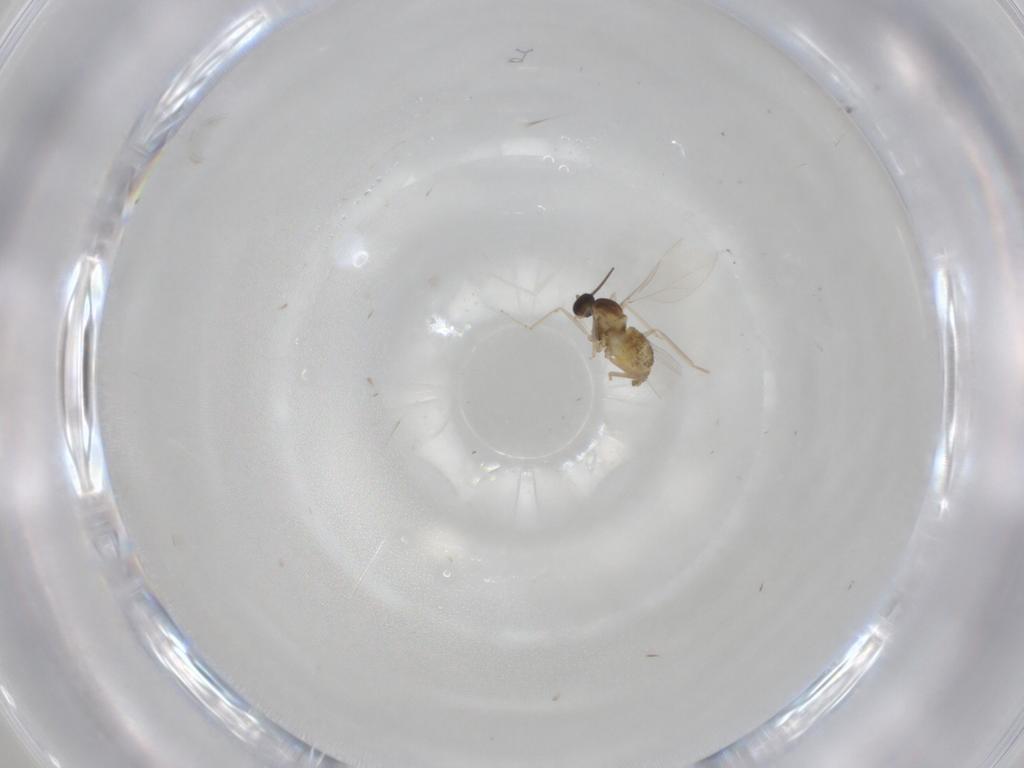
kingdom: Animalia
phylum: Arthropoda
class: Insecta
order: Diptera
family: Cecidomyiidae
